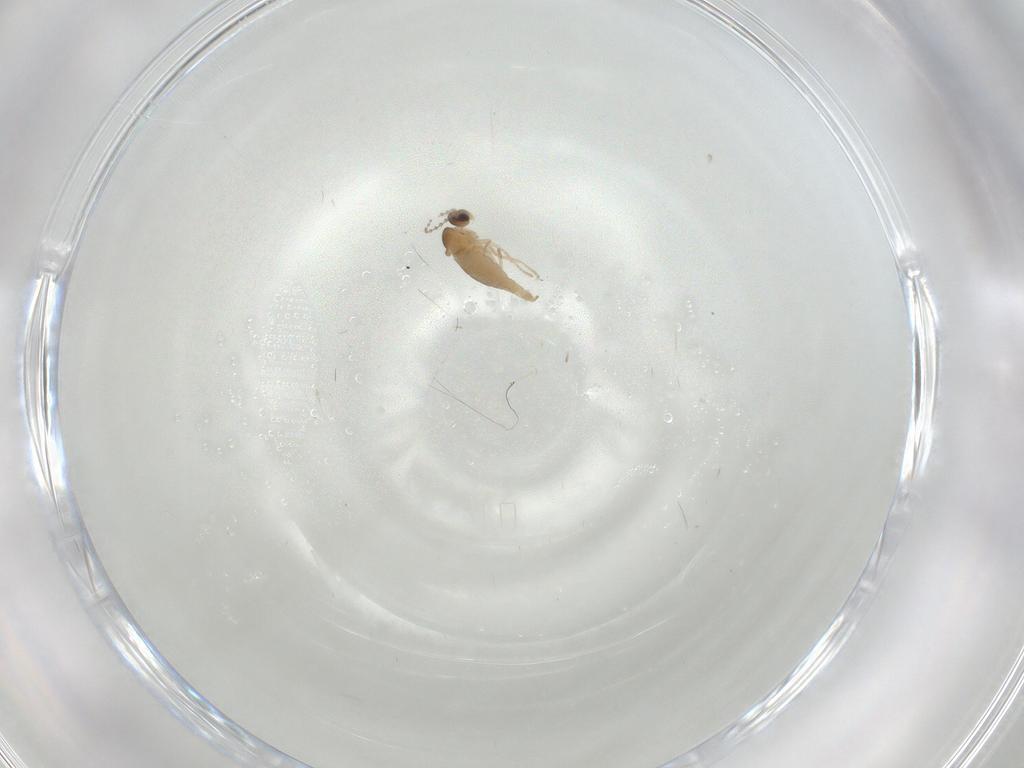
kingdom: Animalia
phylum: Arthropoda
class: Insecta
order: Diptera
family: Cecidomyiidae
